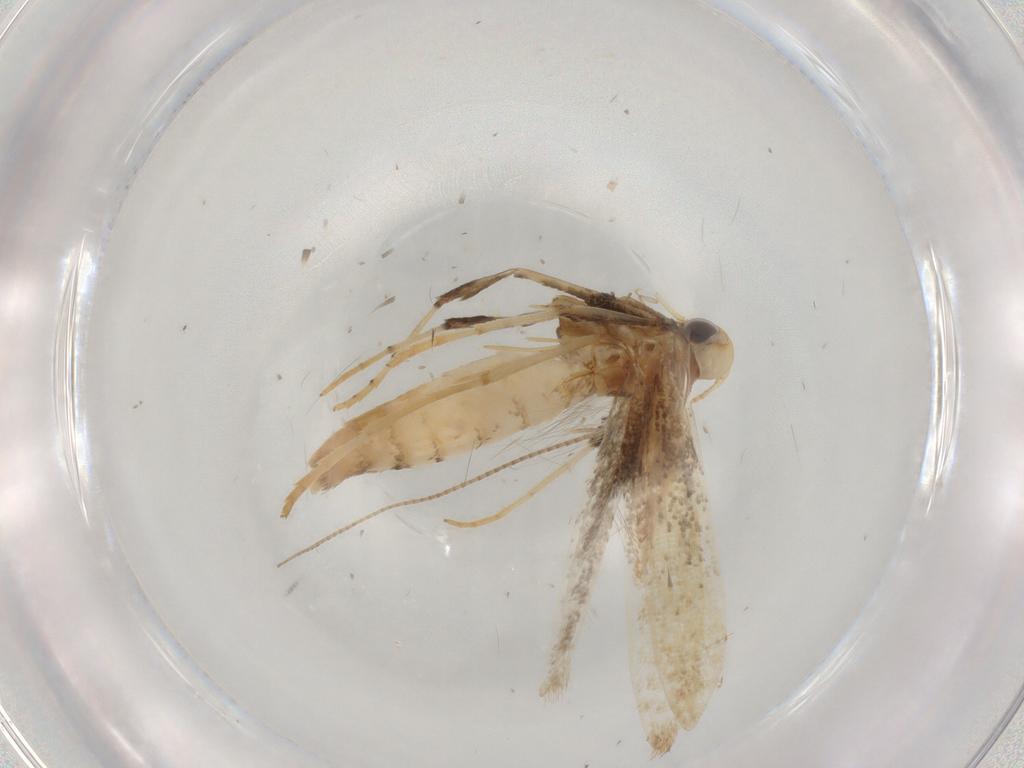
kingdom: Animalia
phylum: Arthropoda
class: Insecta
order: Lepidoptera
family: Gracillariidae
